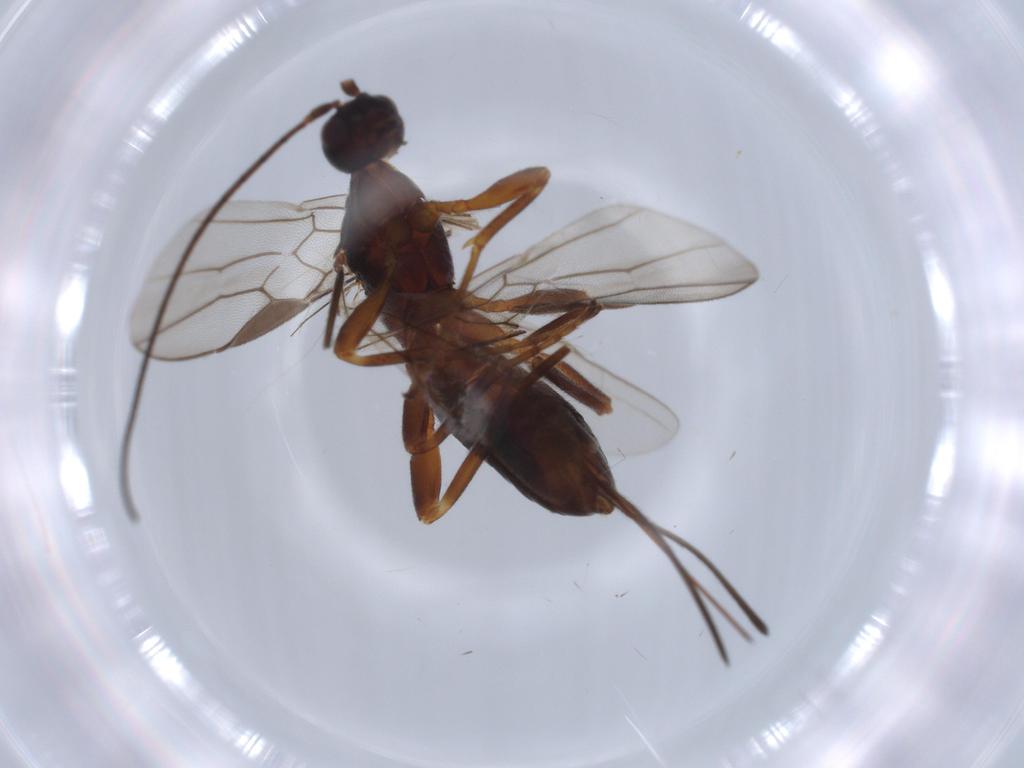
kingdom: Animalia
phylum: Arthropoda
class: Insecta
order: Hymenoptera
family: Braconidae
